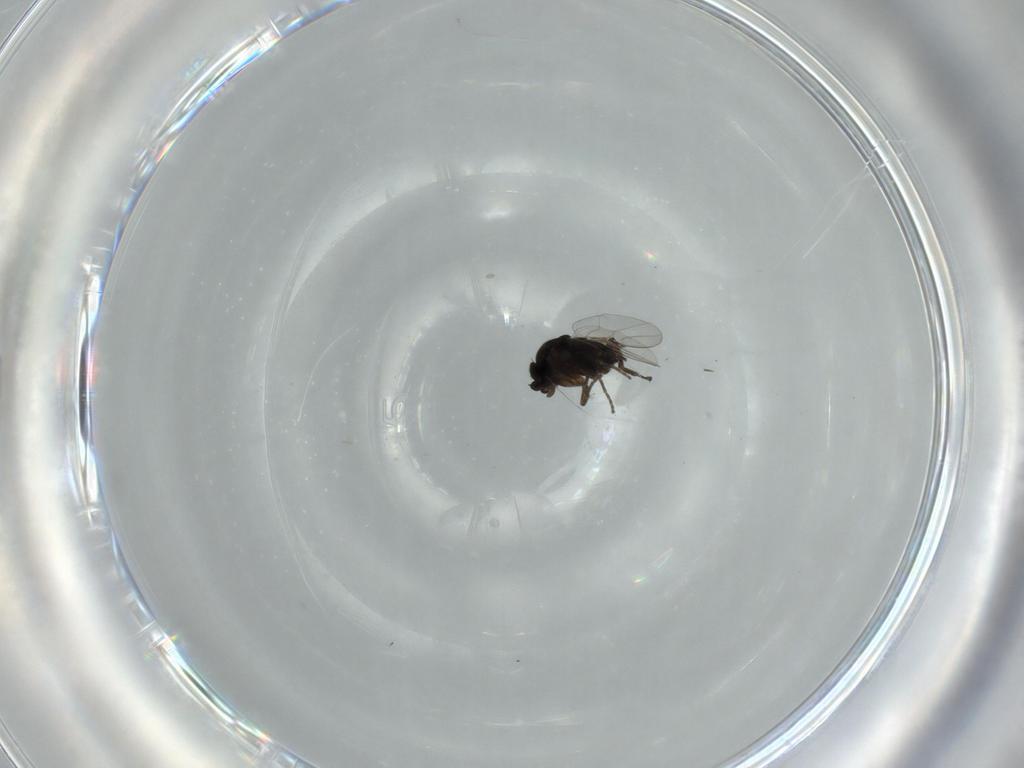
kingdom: Animalia
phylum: Arthropoda
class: Insecta
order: Diptera
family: Phoridae
